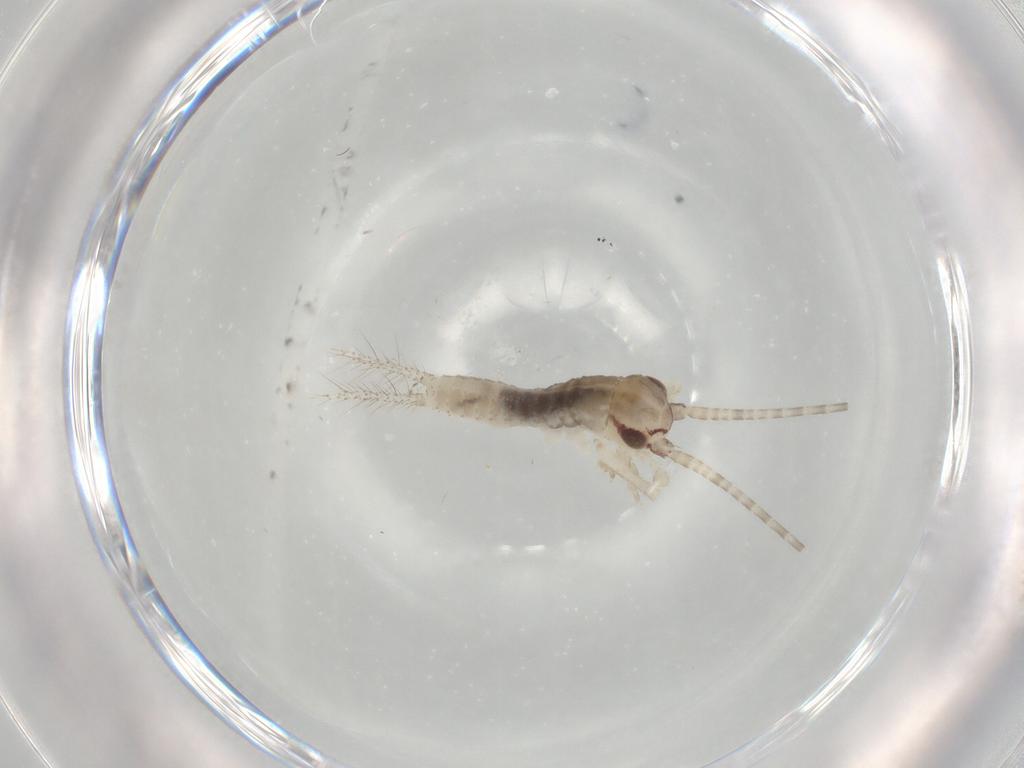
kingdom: Animalia
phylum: Arthropoda
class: Insecta
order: Orthoptera
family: Gryllidae
